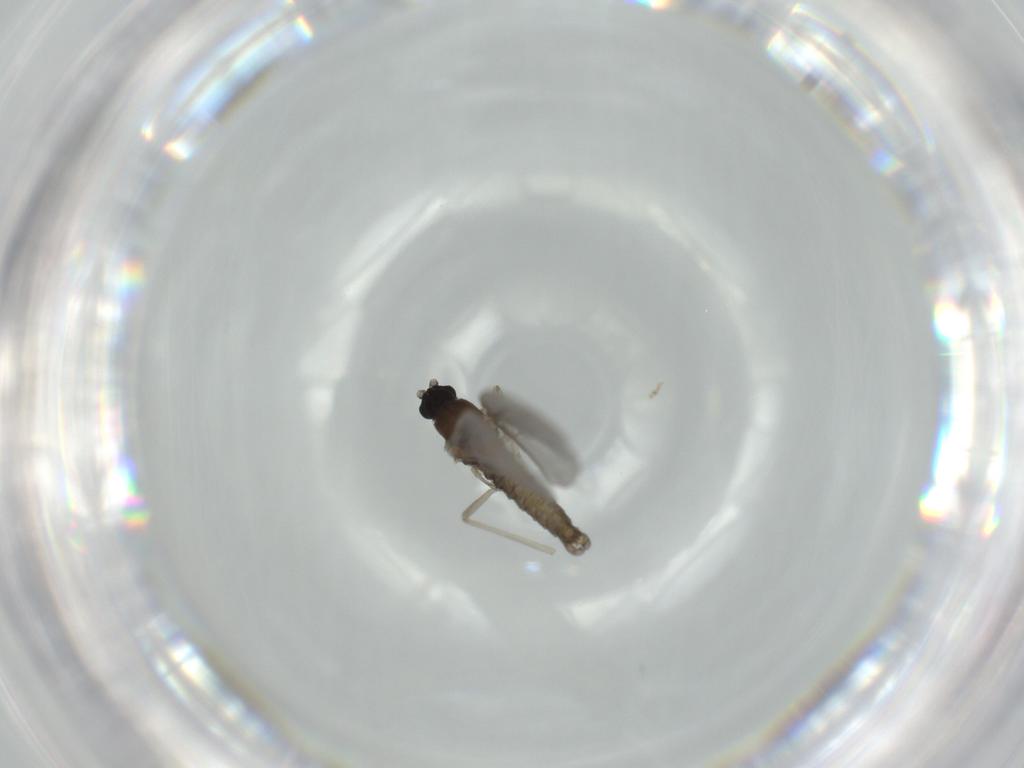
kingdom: Animalia
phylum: Arthropoda
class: Insecta
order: Diptera
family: Cecidomyiidae
